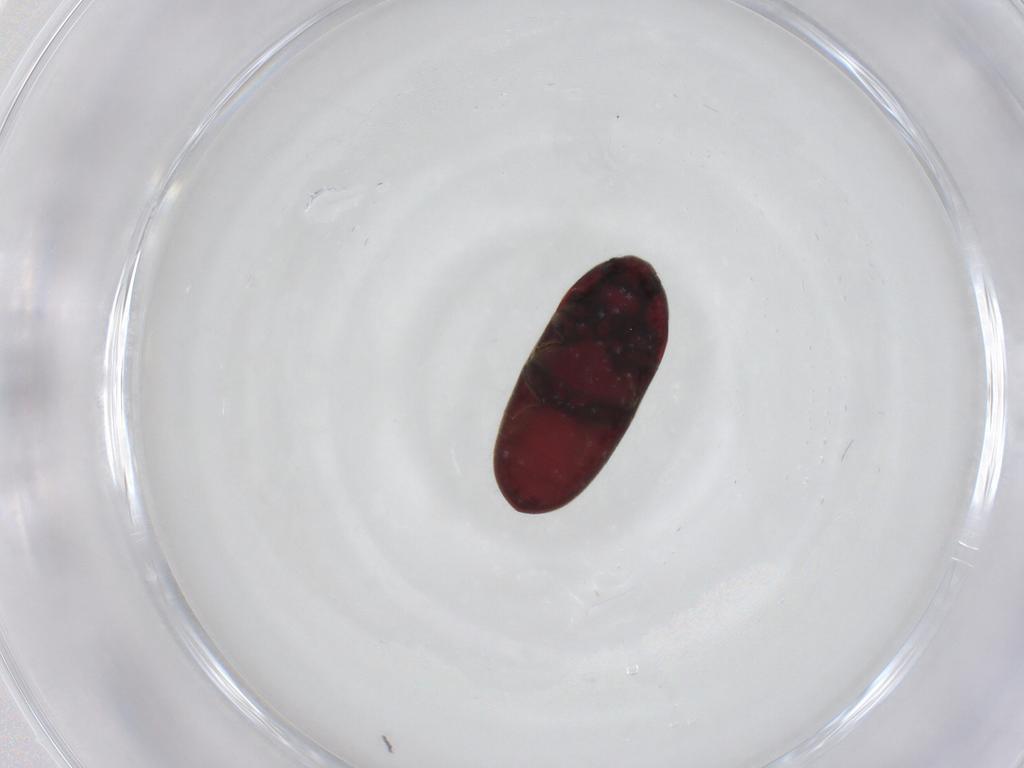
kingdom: Animalia
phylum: Arthropoda
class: Insecta
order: Coleoptera
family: Throscidae
